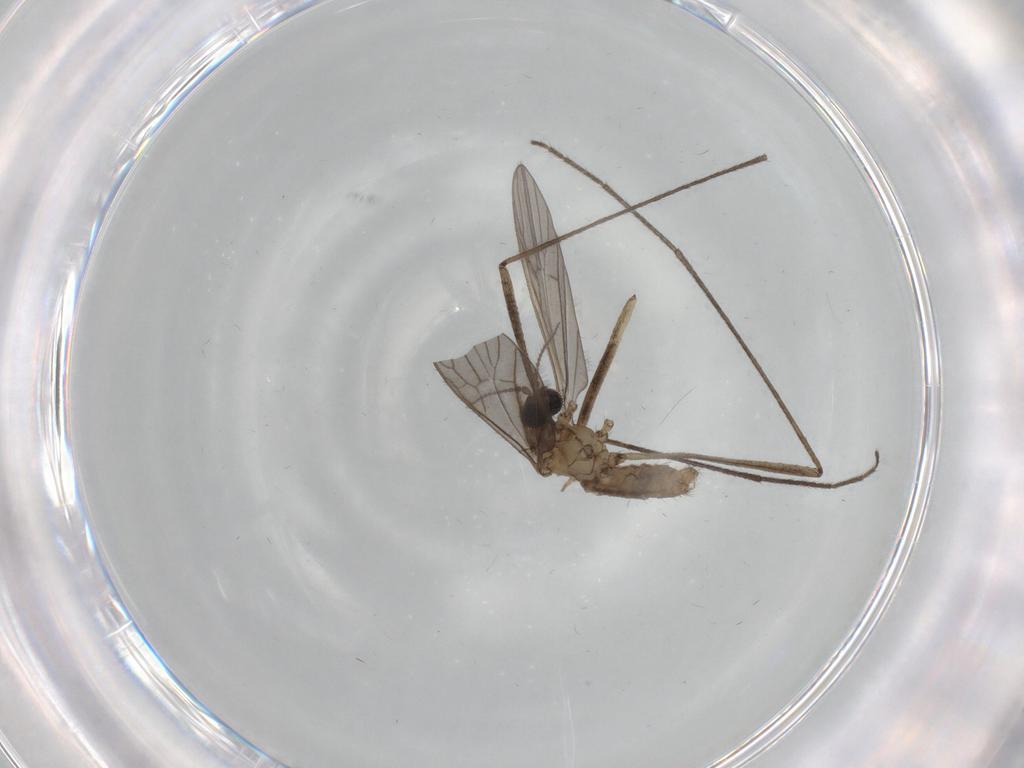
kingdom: Animalia
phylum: Arthropoda
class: Insecta
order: Diptera
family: Limoniidae
